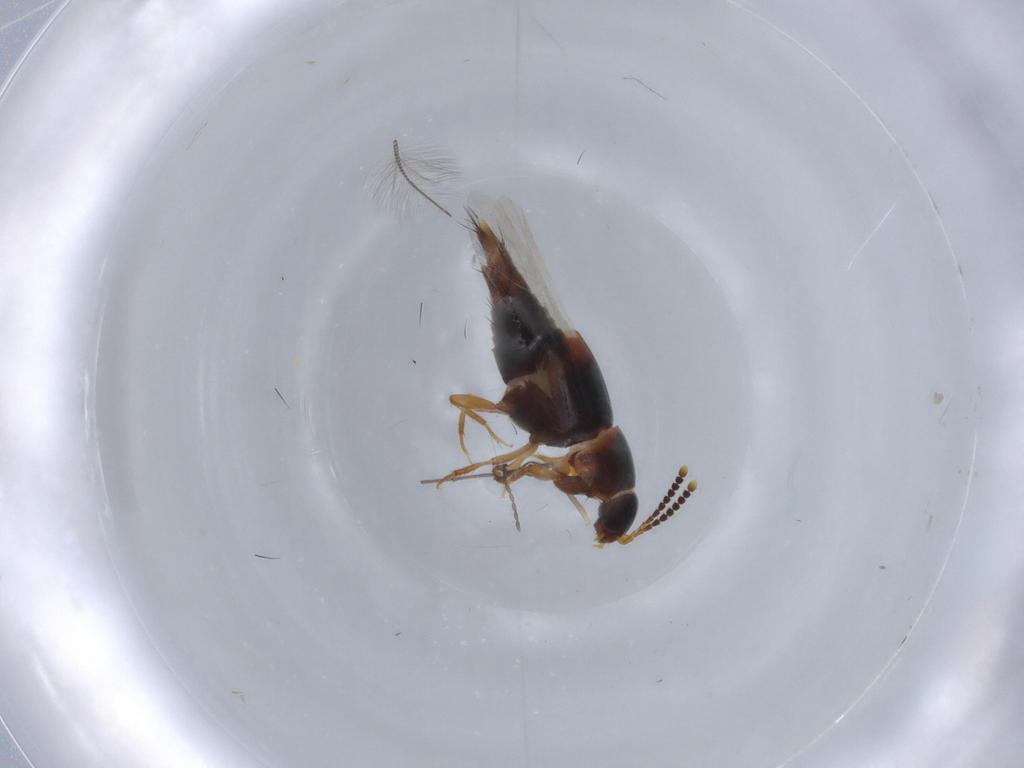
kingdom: Animalia
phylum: Arthropoda
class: Insecta
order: Coleoptera
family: Staphylinidae
